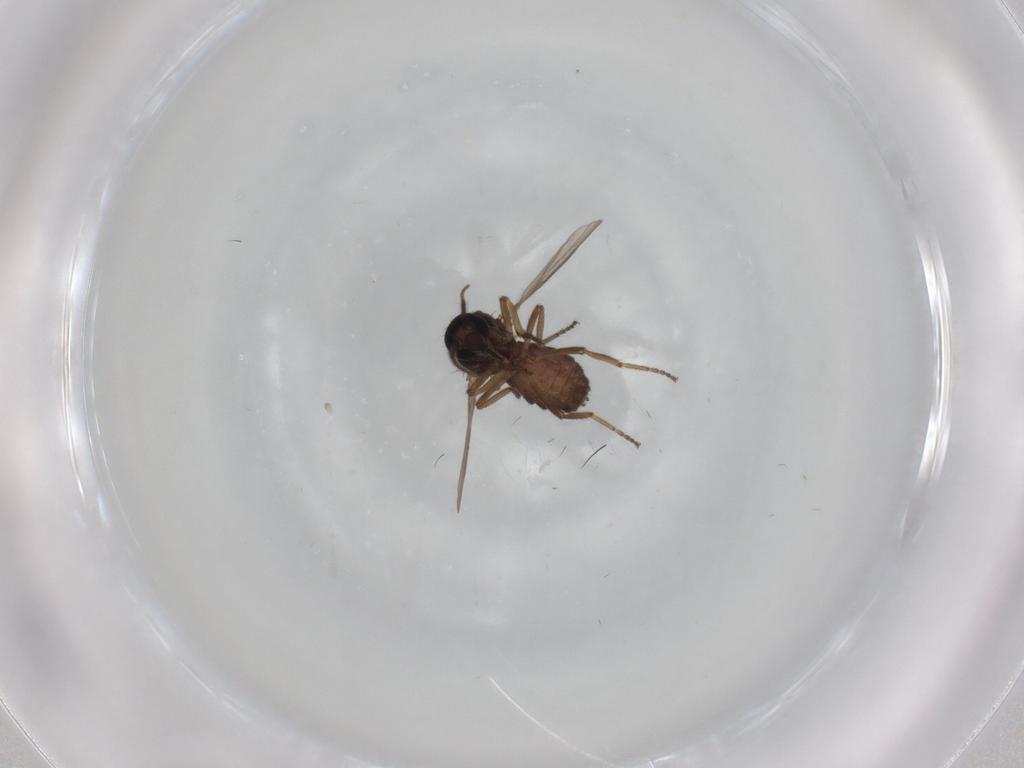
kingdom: Animalia
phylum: Arthropoda
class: Insecta
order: Diptera
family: Ceratopogonidae
